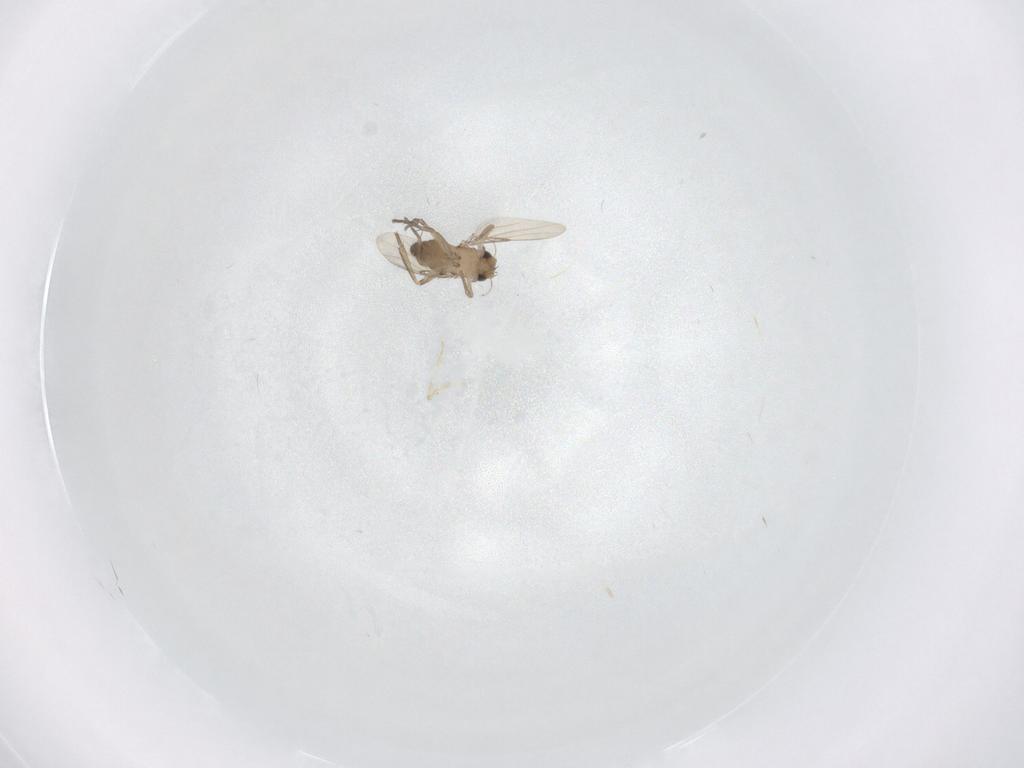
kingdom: Animalia
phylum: Arthropoda
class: Insecta
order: Diptera
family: Phoridae
